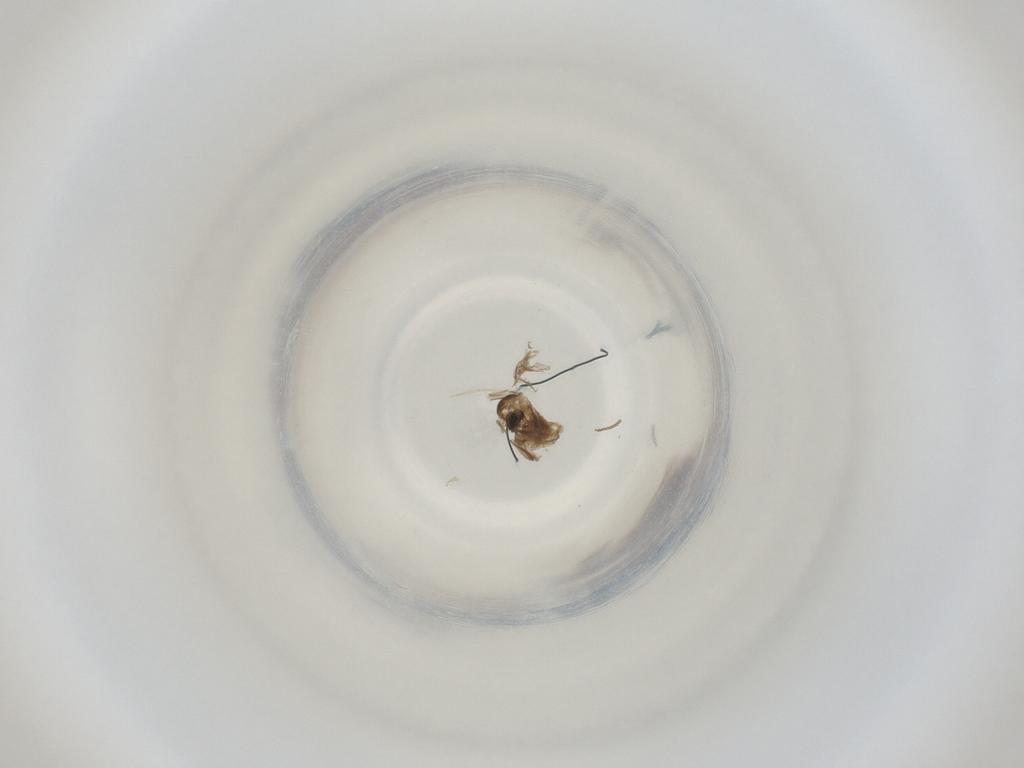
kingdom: Animalia
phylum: Arthropoda
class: Insecta
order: Diptera
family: Cecidomyiidae
